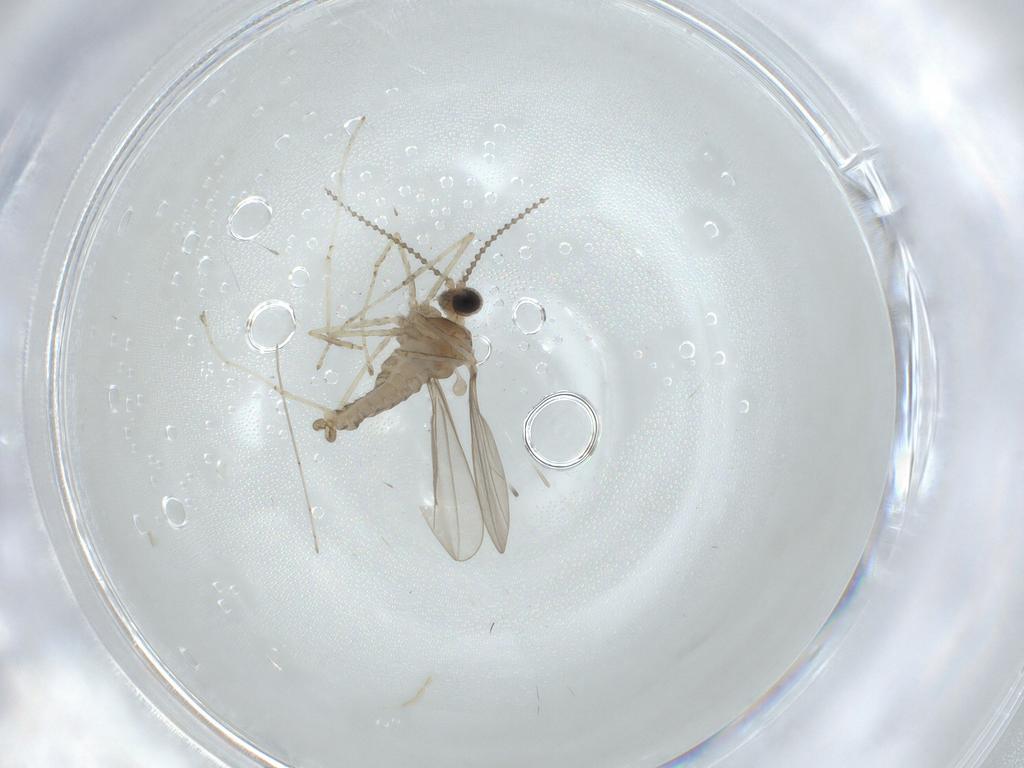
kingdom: Animalia
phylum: Arthropoda
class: Insecta
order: Diptera
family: Cecidomyiidae
